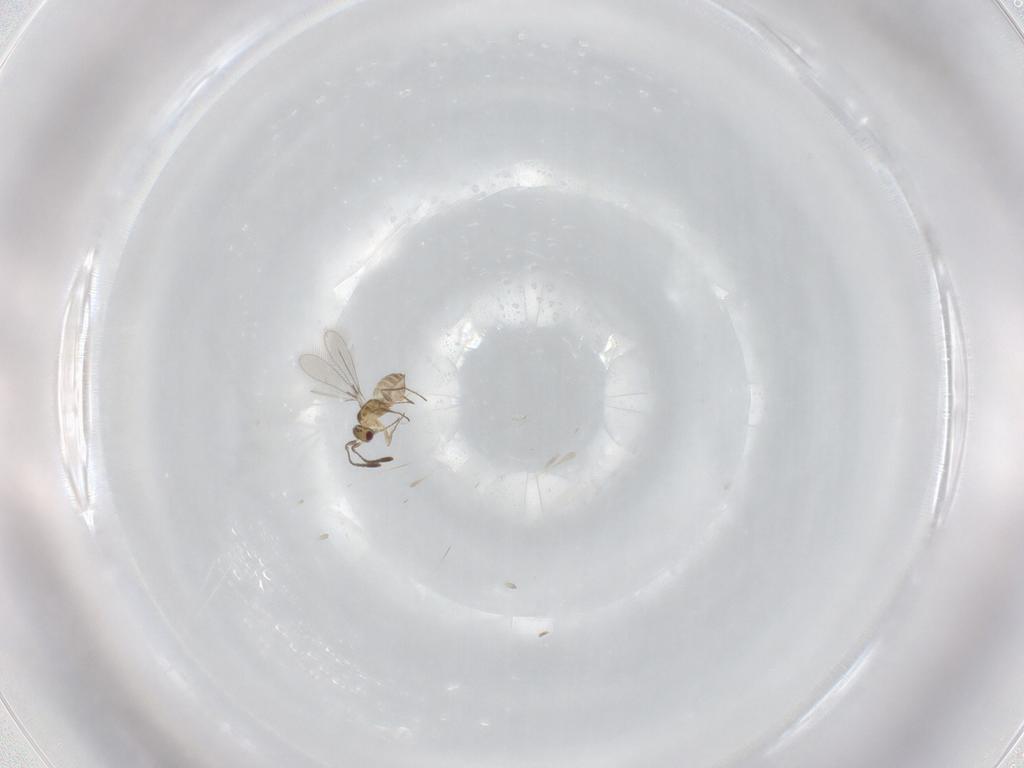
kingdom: Animalia
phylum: Arthropoda
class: Insecta
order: Hymenoptera
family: Mymaridae
